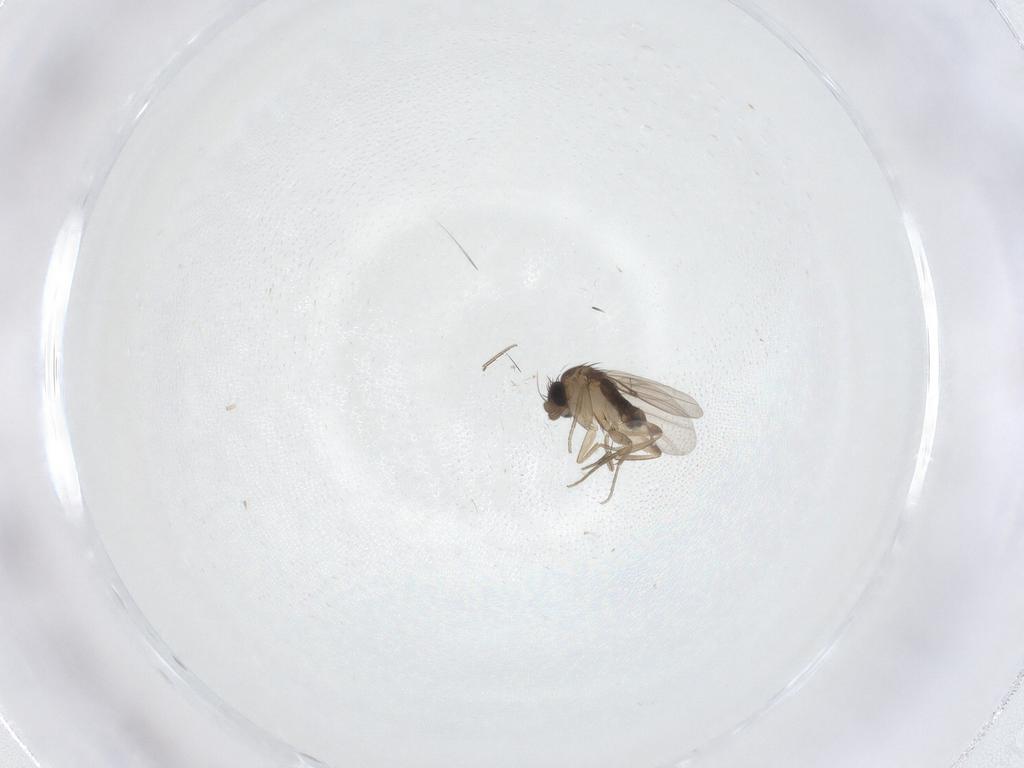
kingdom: Animalia
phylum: Arthropoda
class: Insecta
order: Diptera
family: Phoridae
